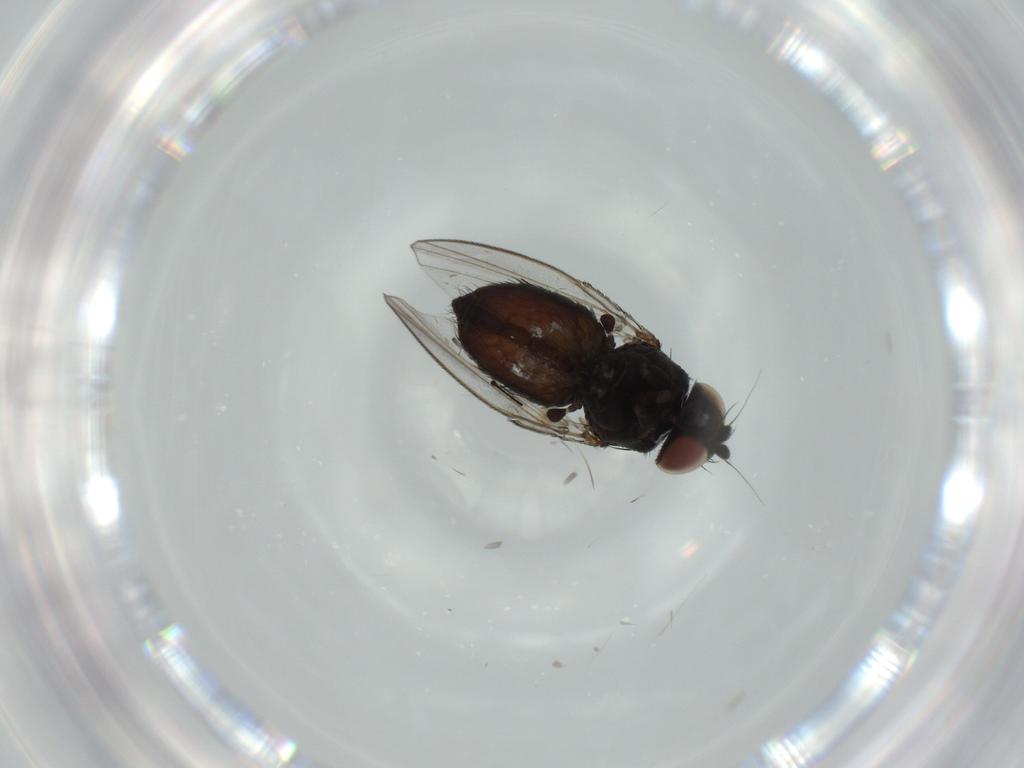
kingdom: Animalia
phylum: Arthropoda
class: Insecta
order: Diptera
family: Milichiidae
